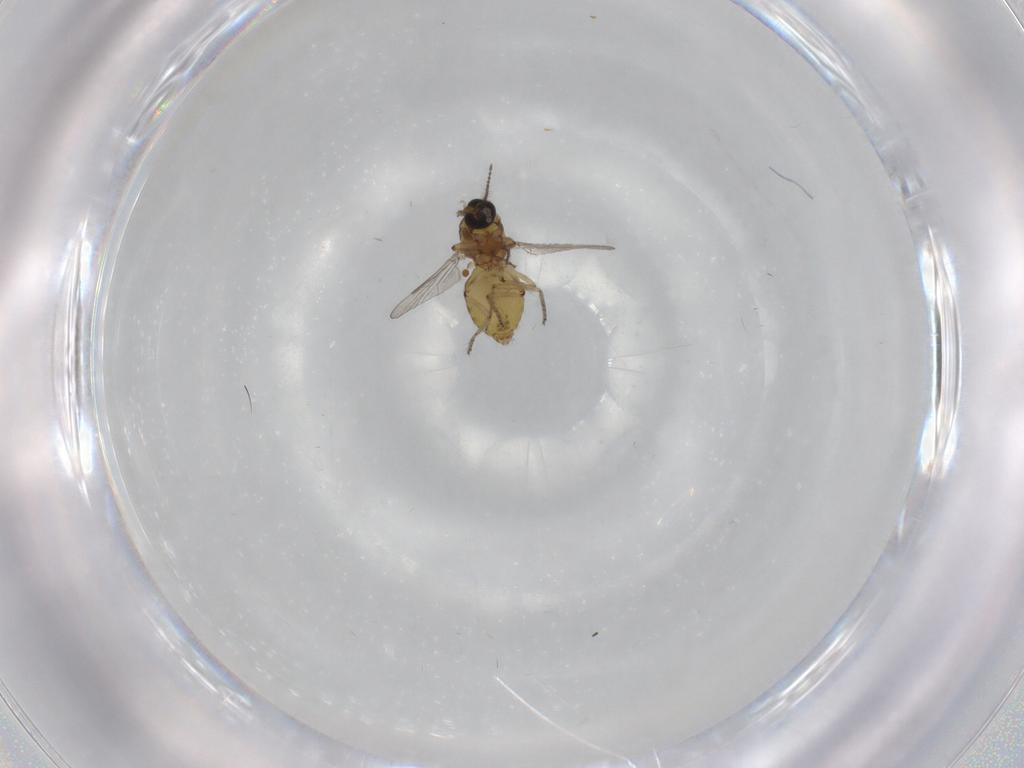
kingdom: Animalia
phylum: Arthropoda
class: Insecta
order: Diptera
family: Ceratopogonidae
